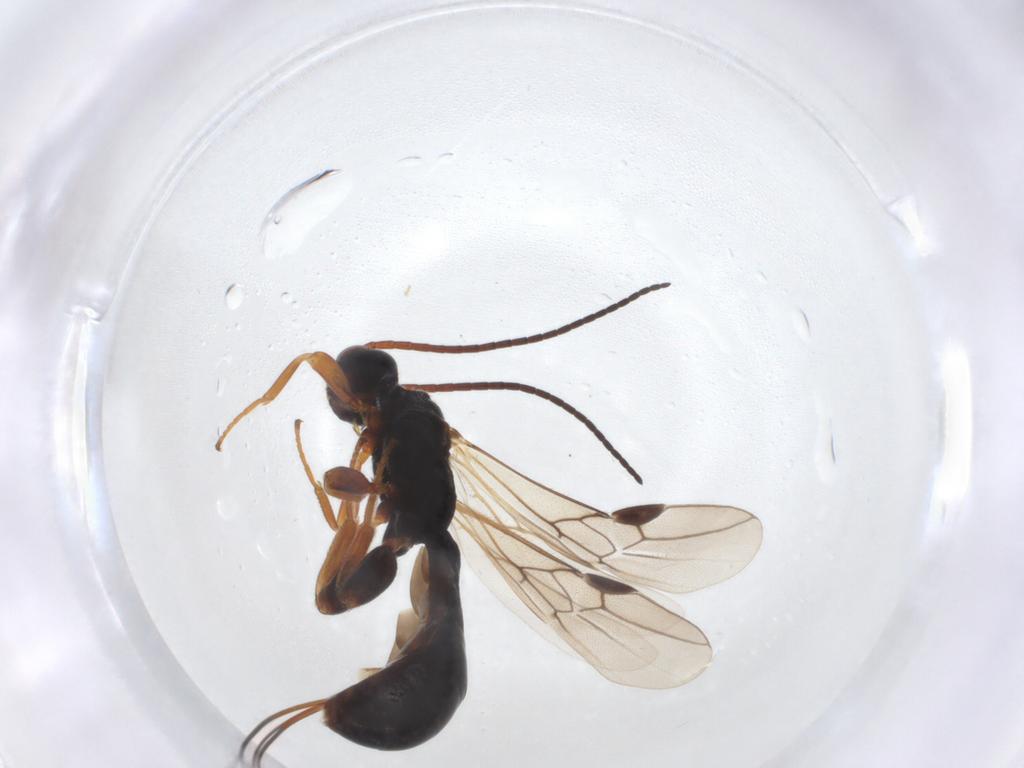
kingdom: Animalia
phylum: Arthropoda
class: Insecta
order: Hymenoptera
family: Braconidae
